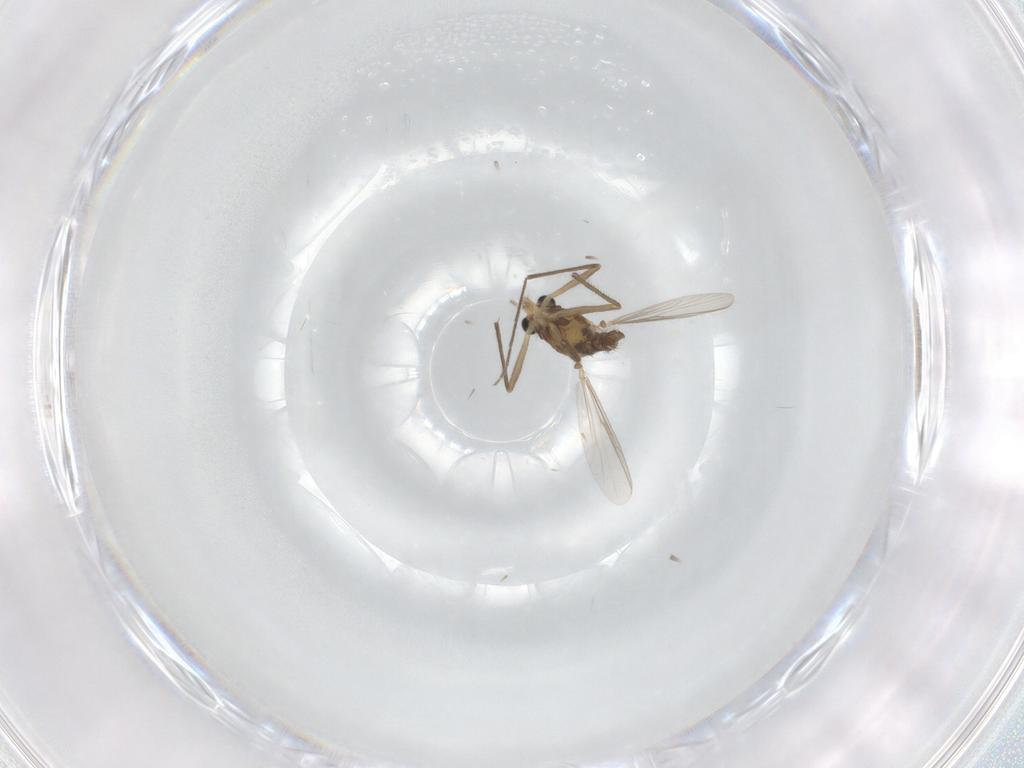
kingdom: Animalia
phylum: Arthropoda
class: Insecta
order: Diptera
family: Chironomidae
